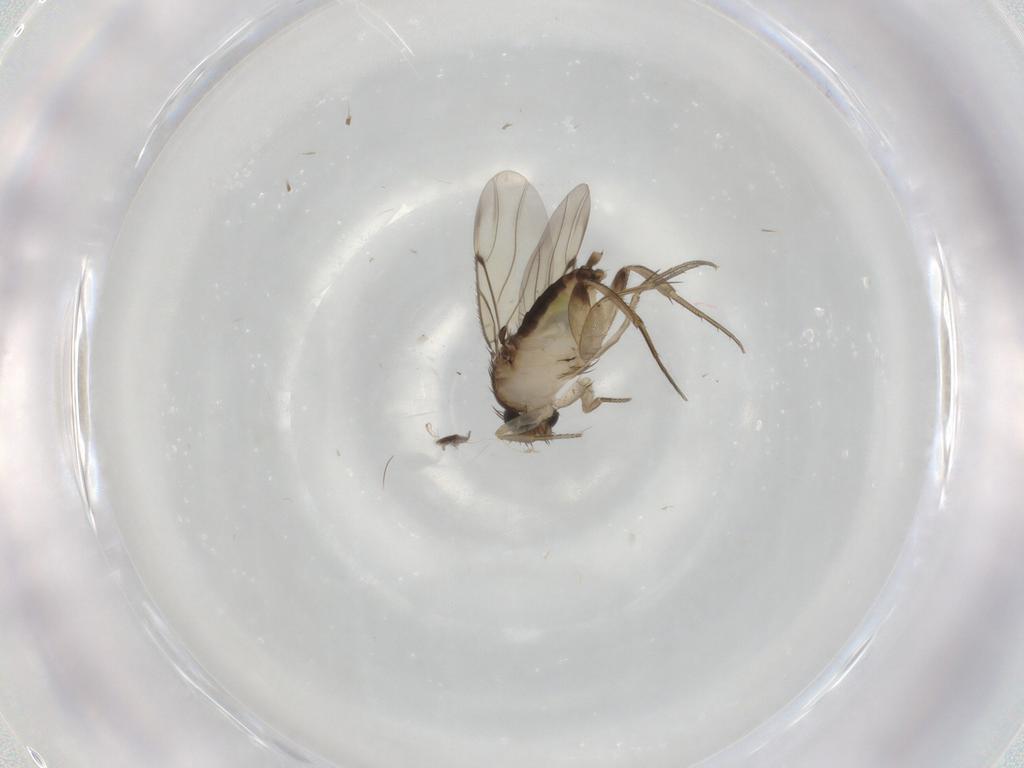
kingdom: Animalia
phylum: Arthropoda
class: Insecta
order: Diptera
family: Phoridae
